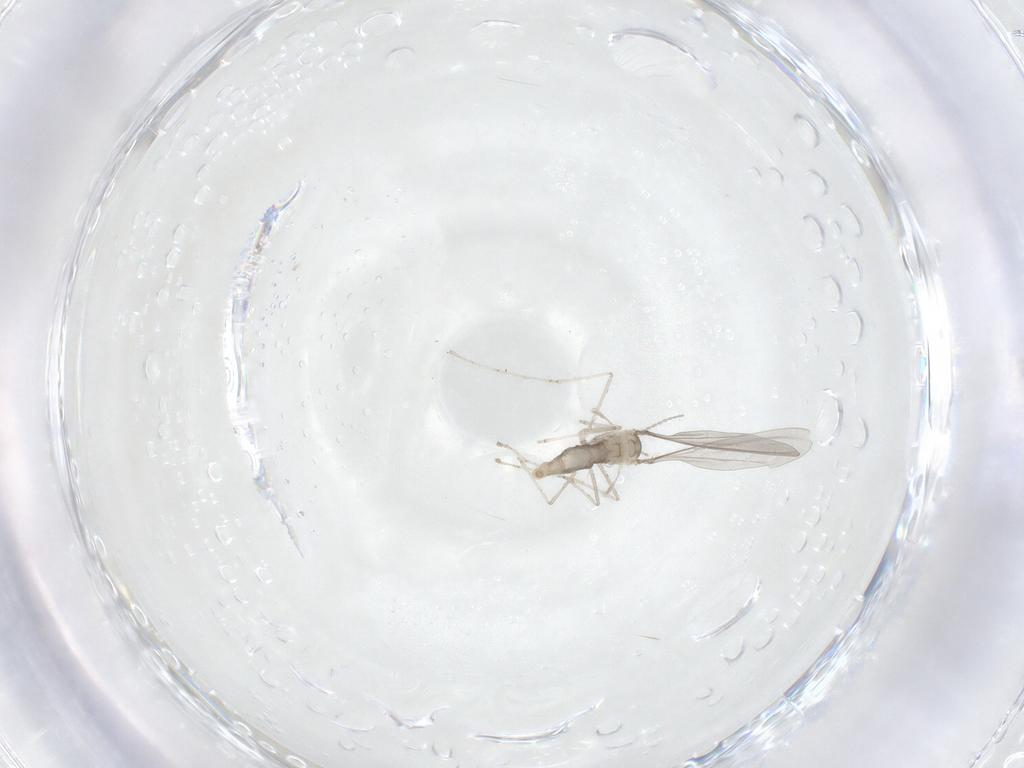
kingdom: Animalia
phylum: Arthropoda
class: Insecta
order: Diptera
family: Cecidomyiidae
